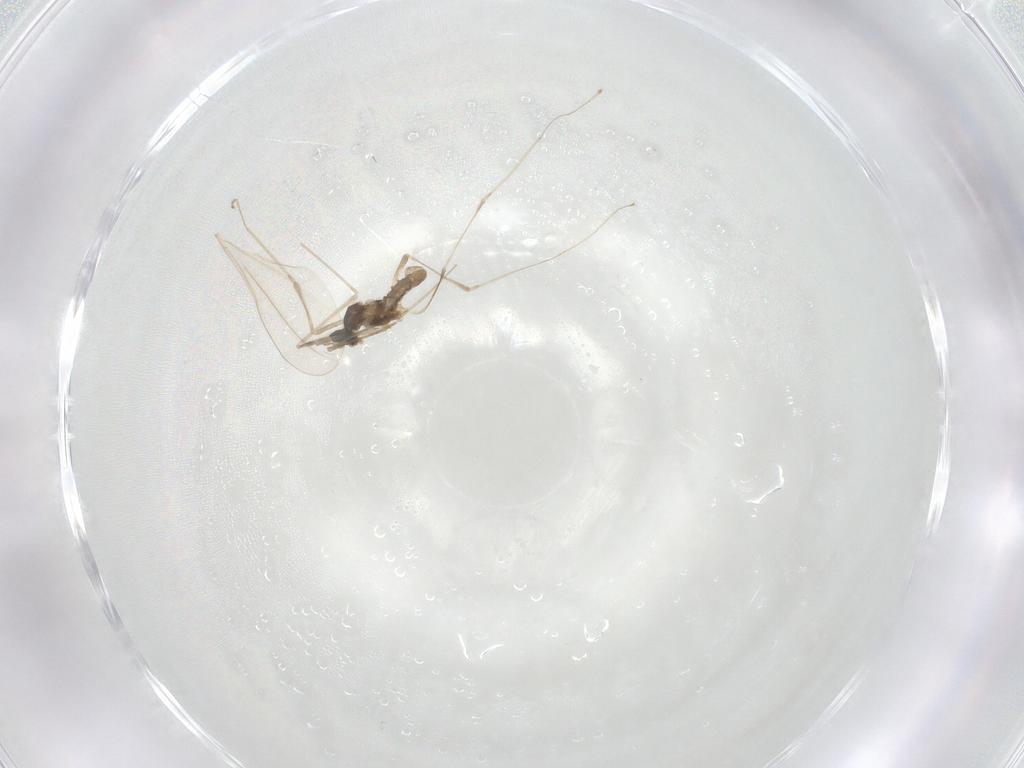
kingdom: Animalia
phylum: Arthropoda
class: Insecta
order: Diptera
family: Cecidomyiidae
